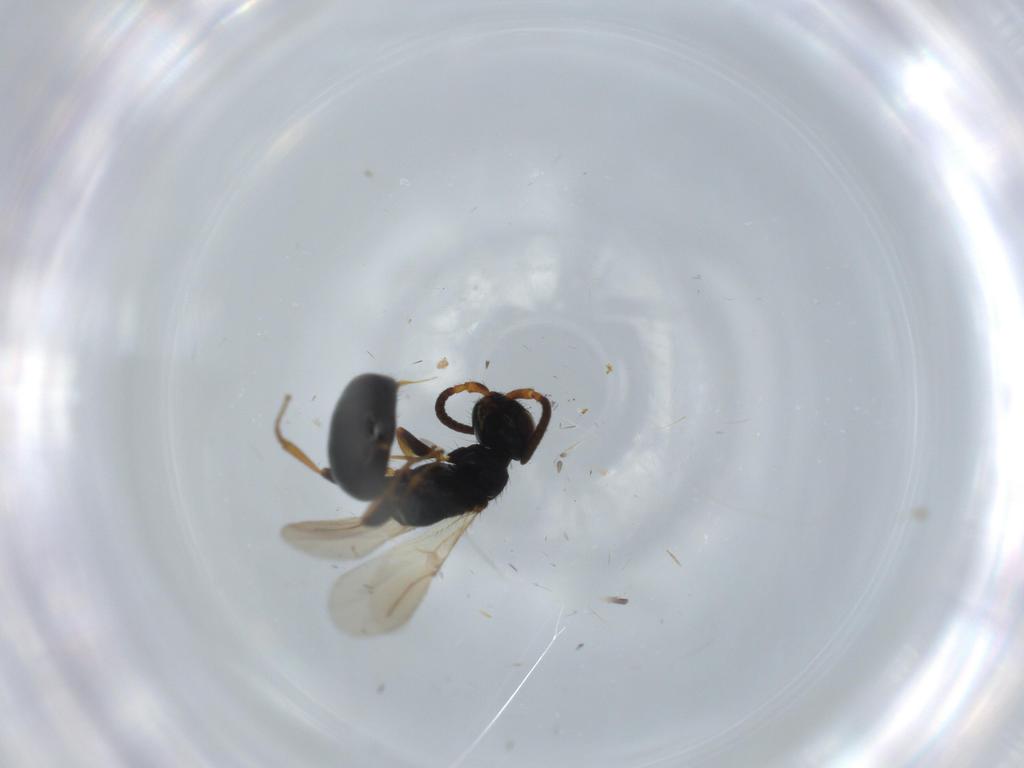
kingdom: Animalia
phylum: Arthropoda
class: Insecta
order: Hymenoptera
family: Bethylidae
